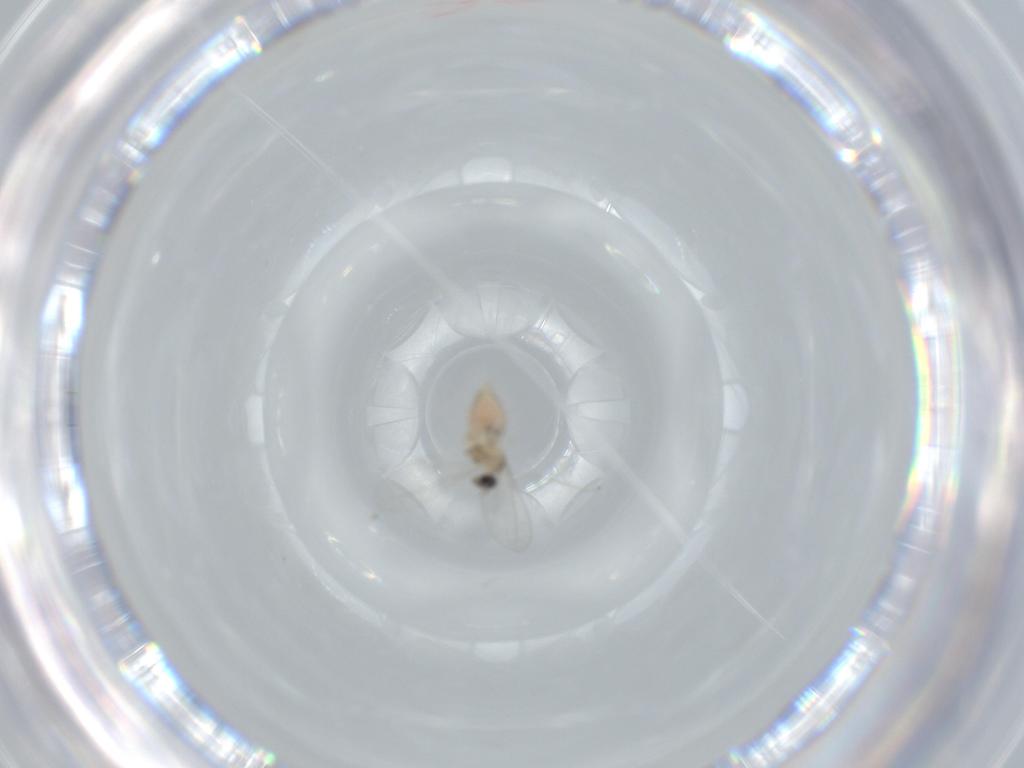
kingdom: Animalia
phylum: Arthropoda
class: Insecta
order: Diptera
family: Cecidomyiidae
